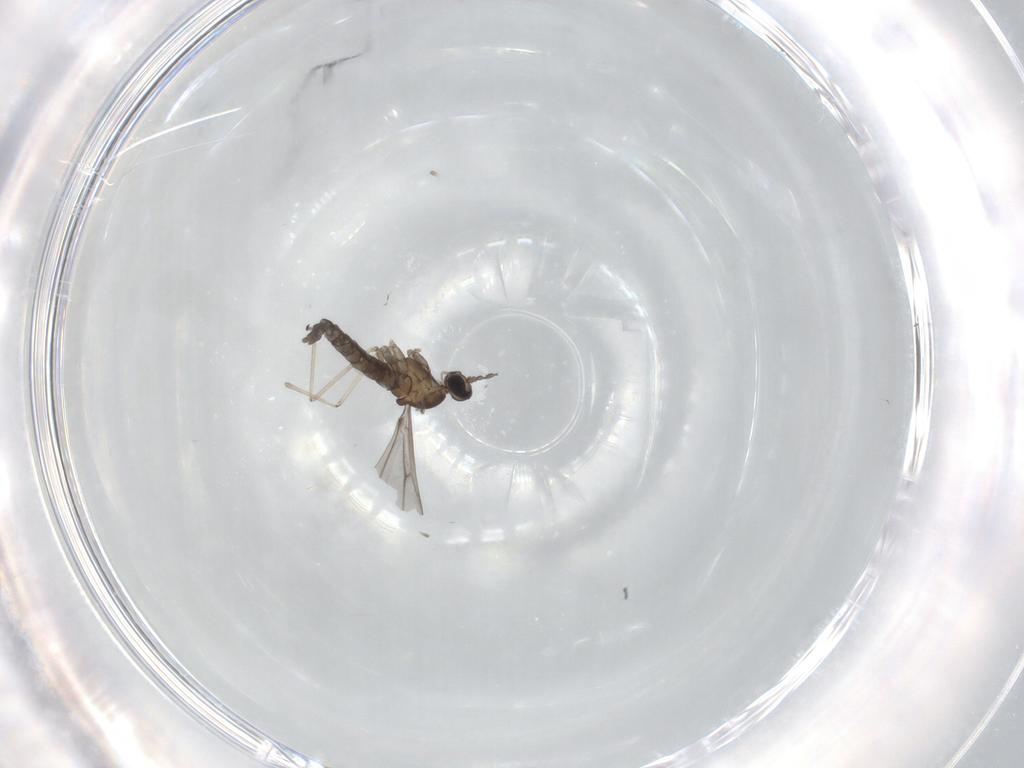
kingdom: Animalia
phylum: Arthropoda
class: Insecta
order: Diptera
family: Cecidomyiidae
